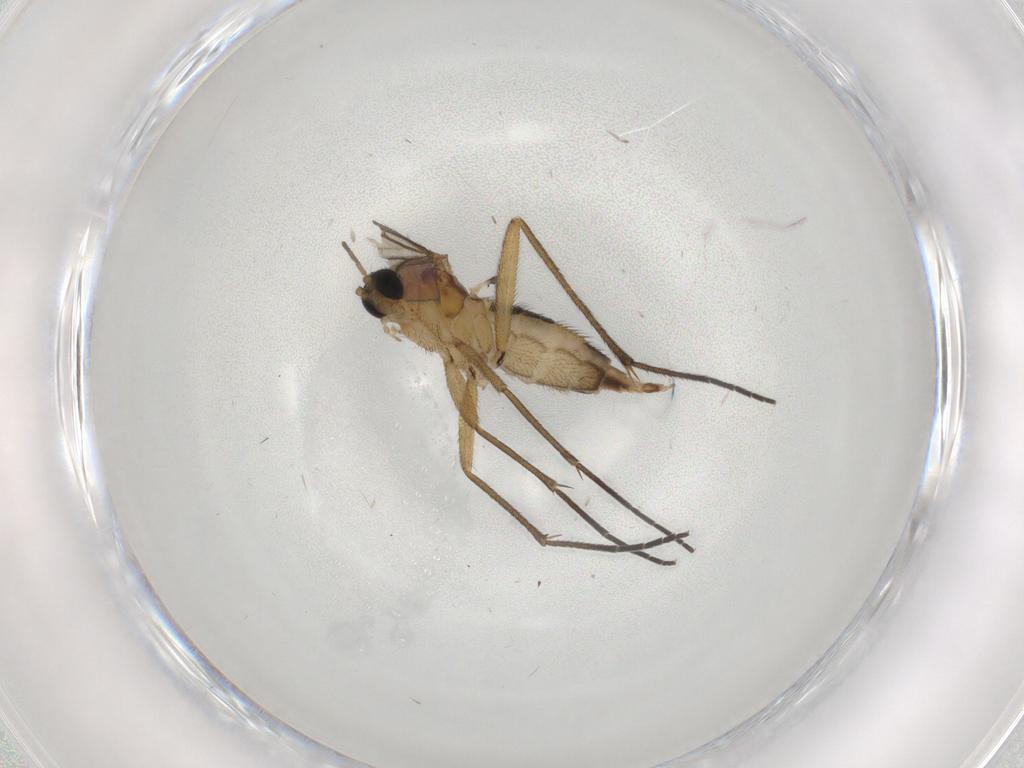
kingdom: Animalia
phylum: Arthropoda
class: Insecta
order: Diptera
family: Sciaridae
